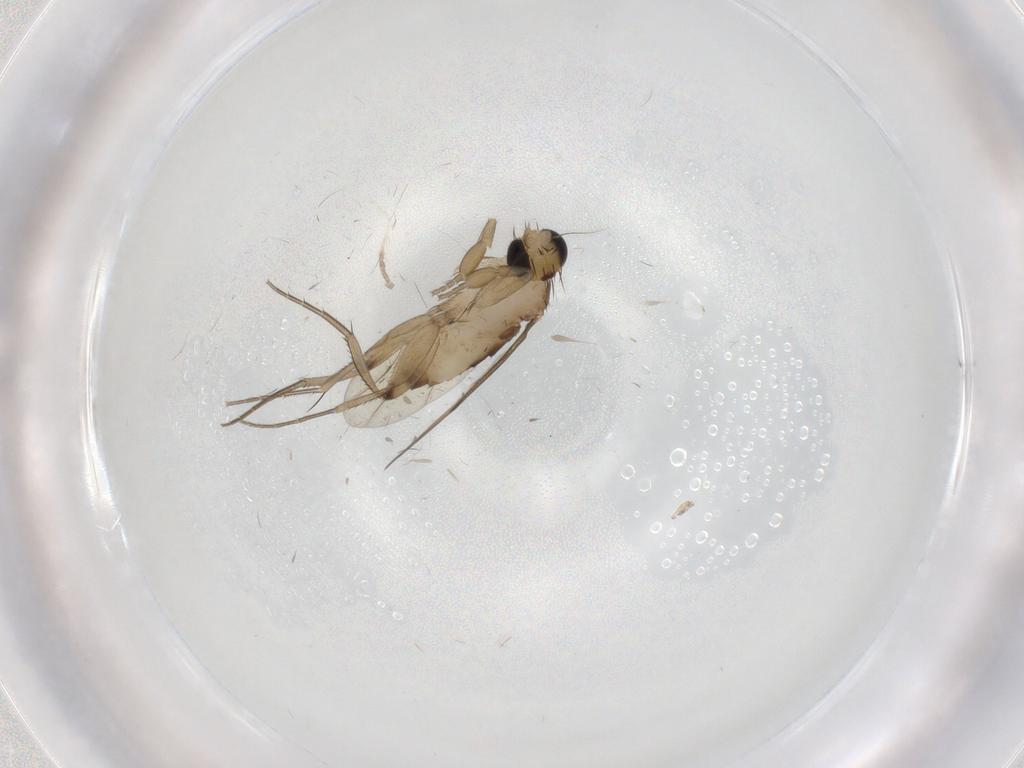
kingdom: Animalia
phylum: Arthropoda
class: Insecta
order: Diptera
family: Phoridae
